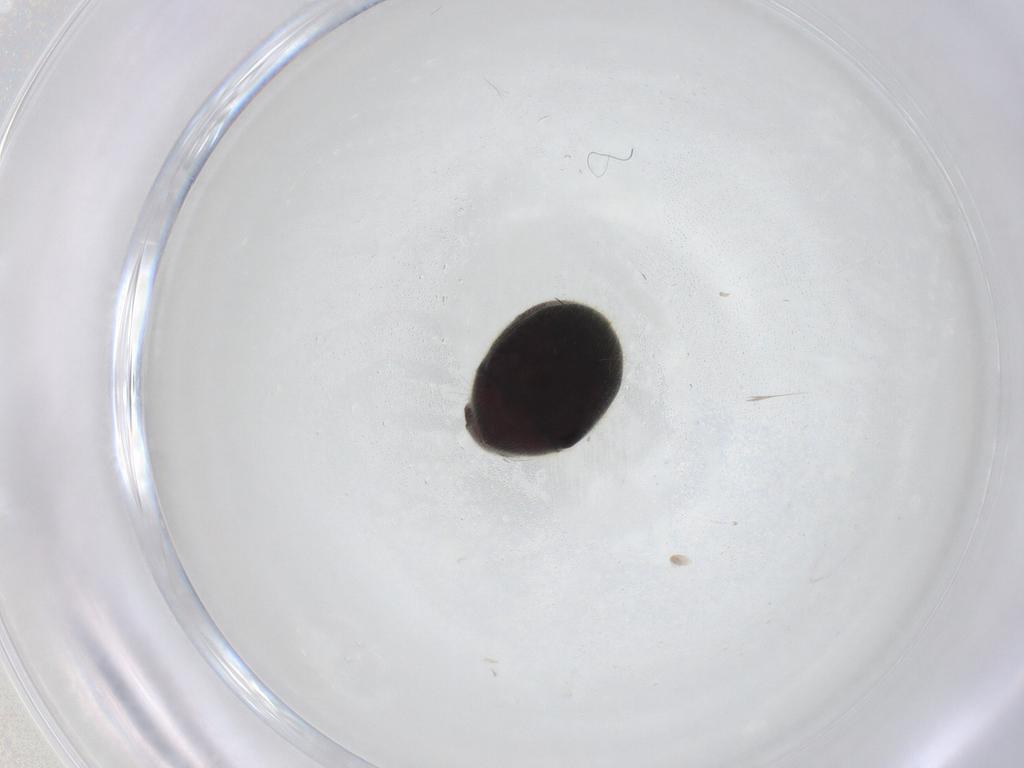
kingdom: Animalia
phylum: Arthropoda
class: Insecta
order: Coleoptera
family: Ptinidae
